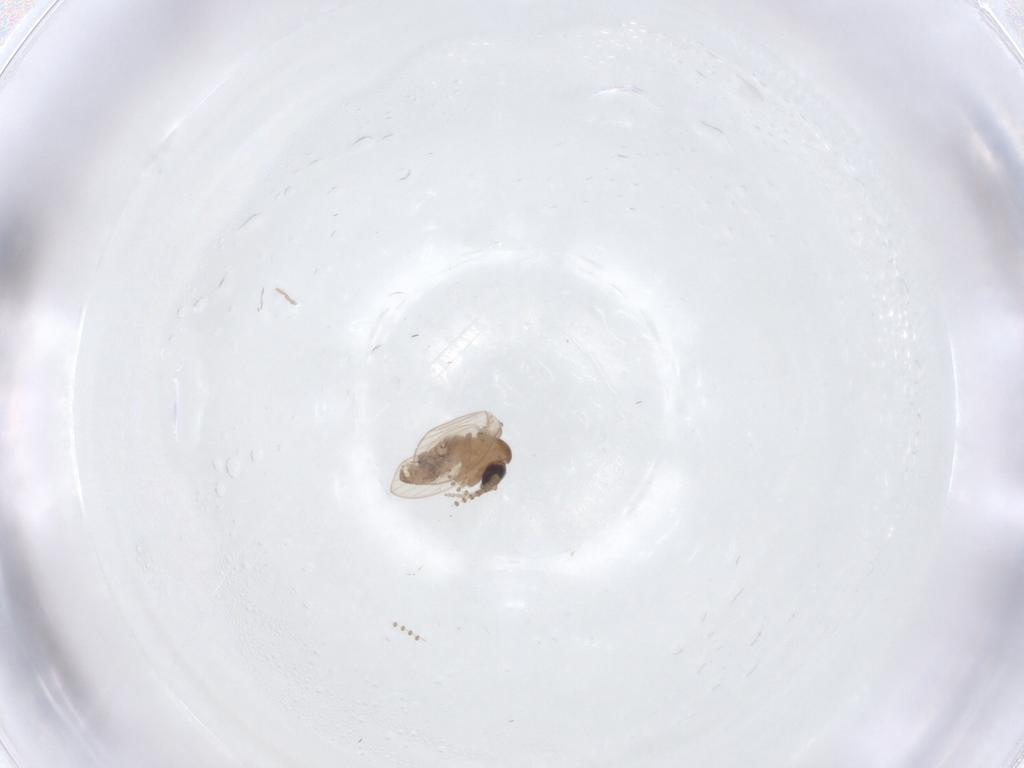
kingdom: Animalia
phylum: Arthropoda
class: Insecta
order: Diptera
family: Psychodidae
